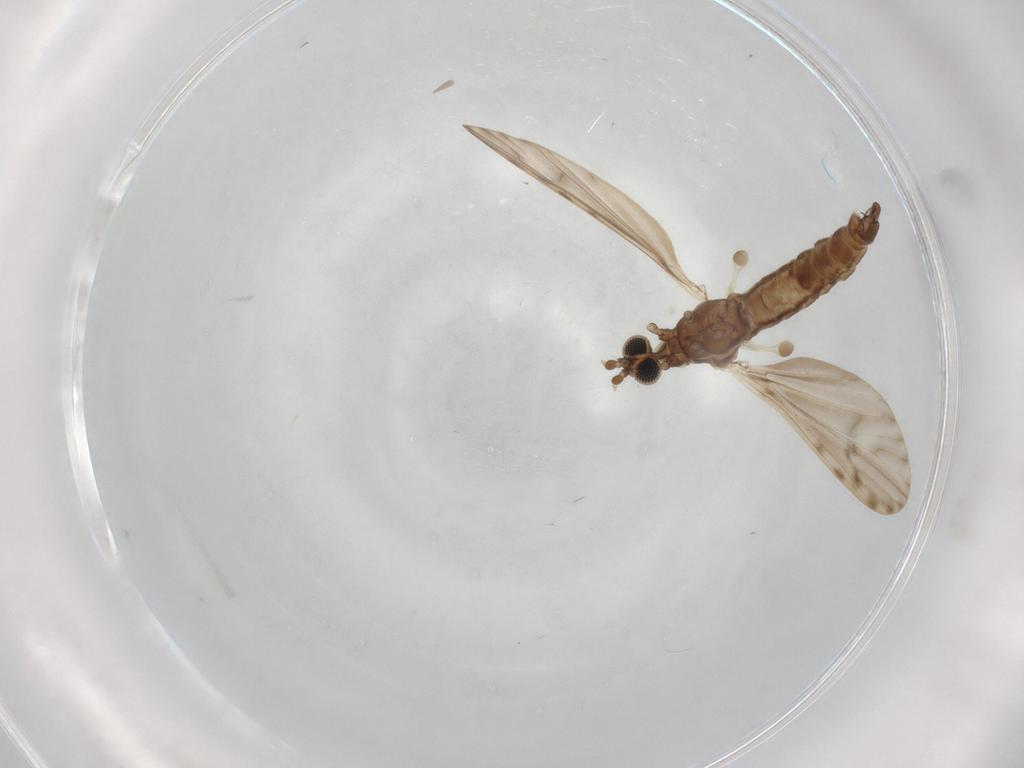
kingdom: Animalia
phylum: Arthropoda
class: Insecta
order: Diptera
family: Milichiidae
